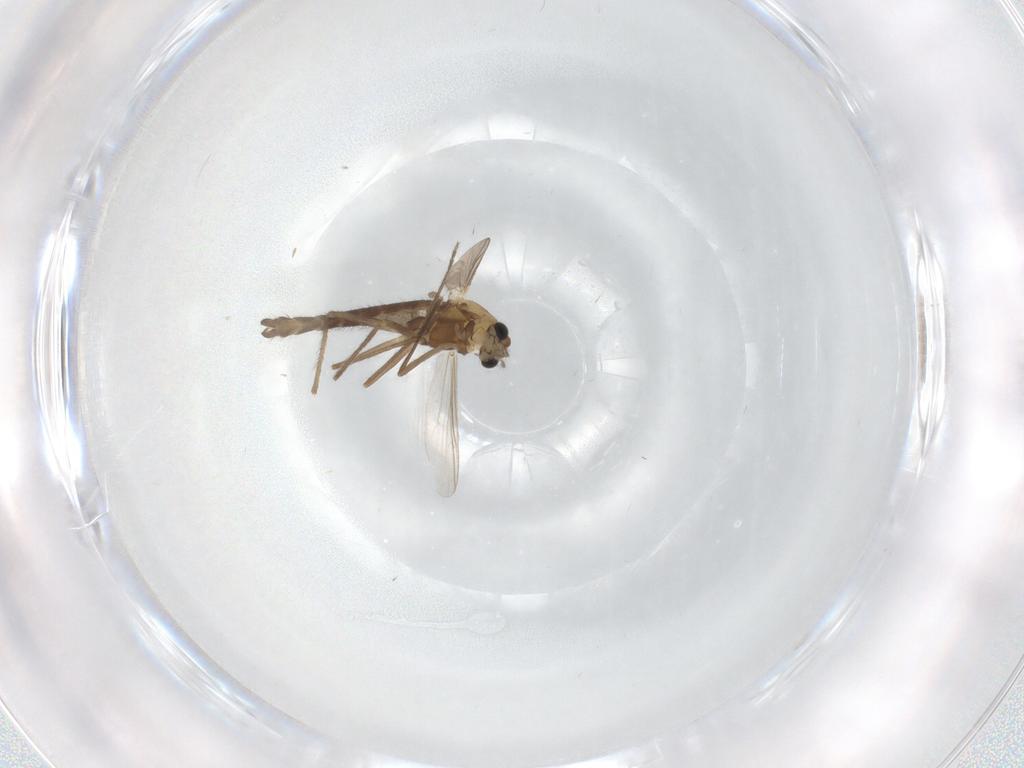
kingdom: Animalia
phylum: Arthropoda
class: Insecta
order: Diptera
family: Chironomidae
